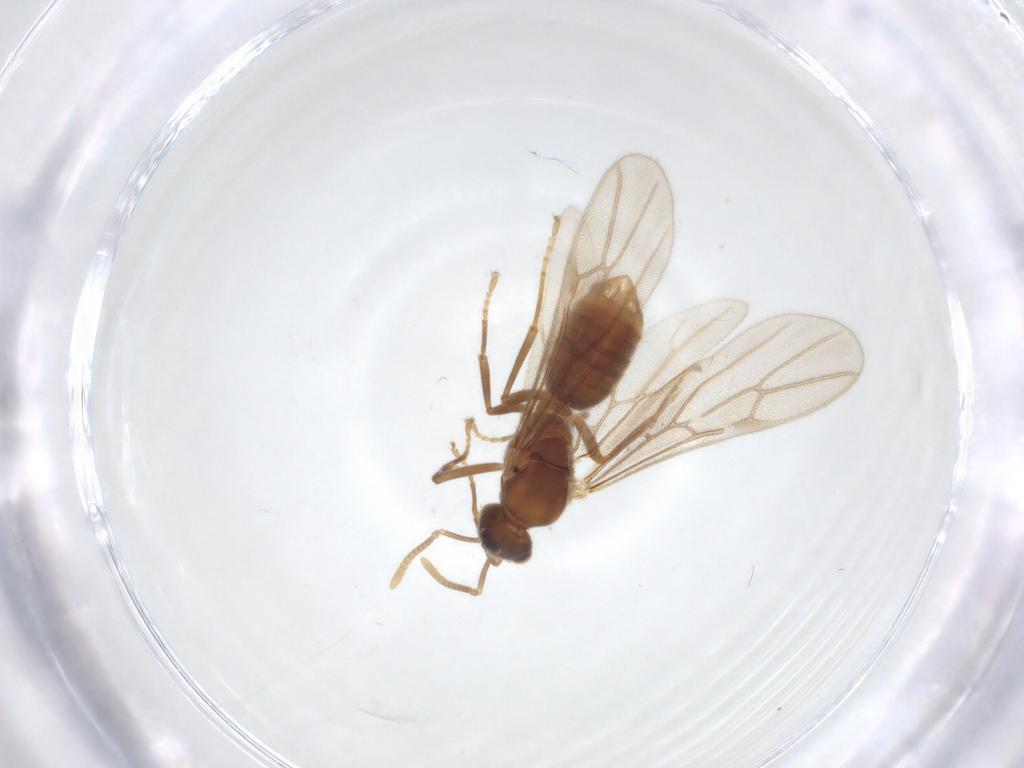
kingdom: Animalia
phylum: Arthropoda
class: Insecta
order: Hymenoptera
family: Formicidae
